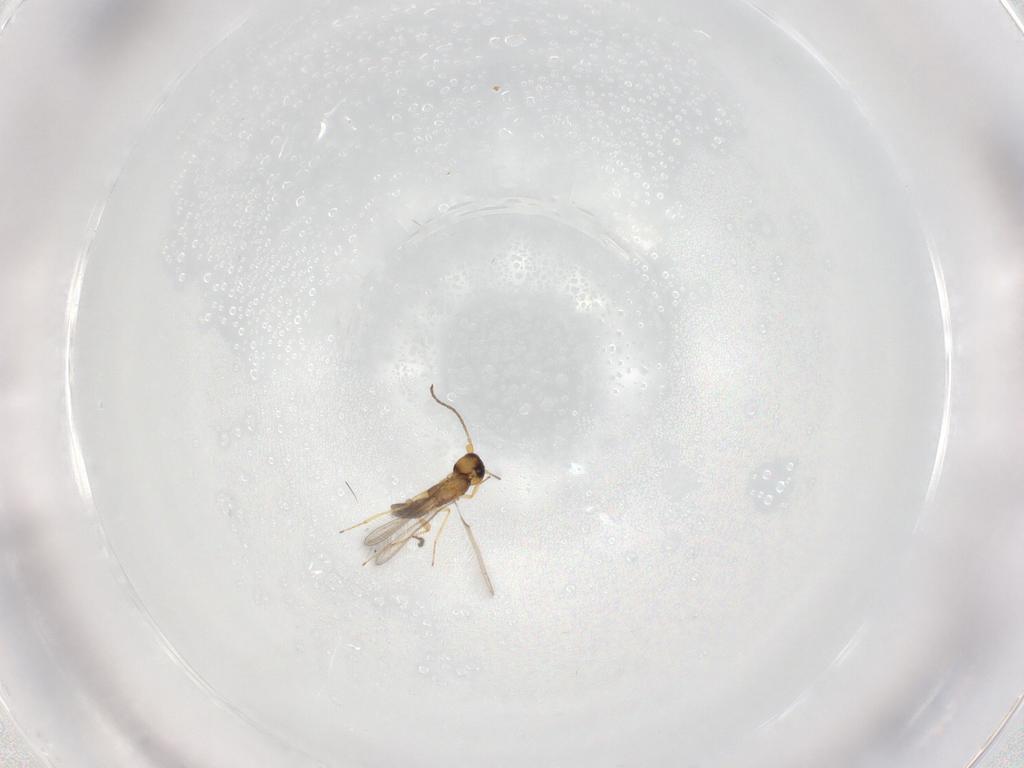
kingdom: Animalia
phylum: Arthropoda
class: Insecta
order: Hymenoptera
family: Mymaridae
